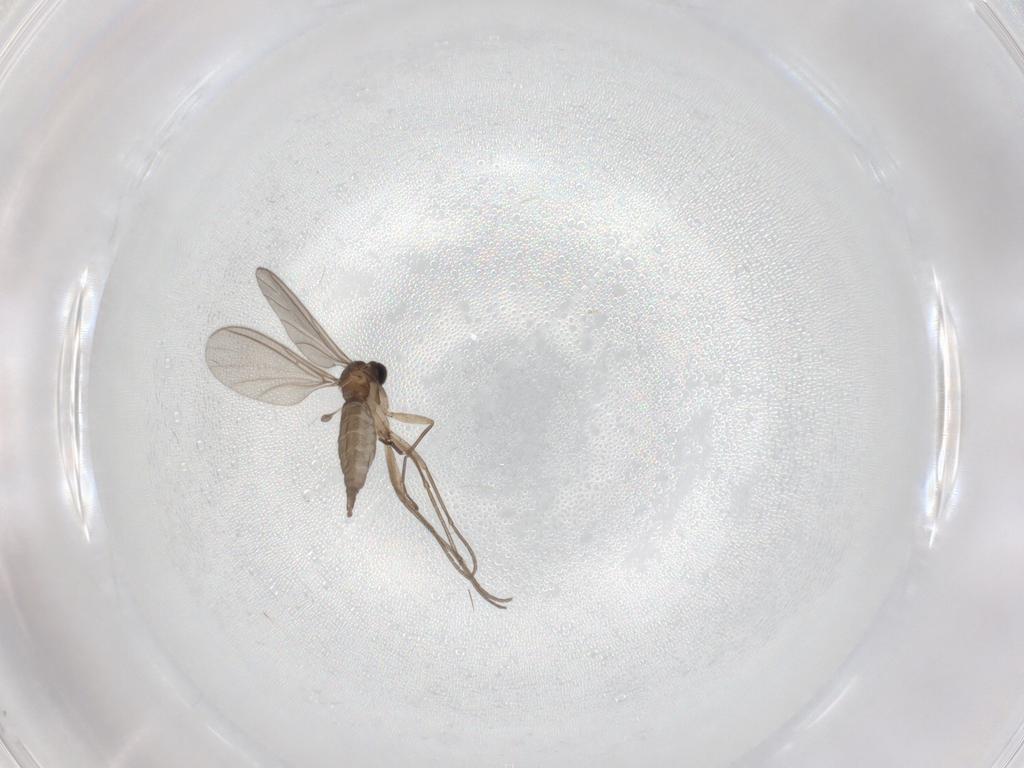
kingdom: Animalia
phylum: Arthropoda
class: Insecta
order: Diptera
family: Sciaridae
